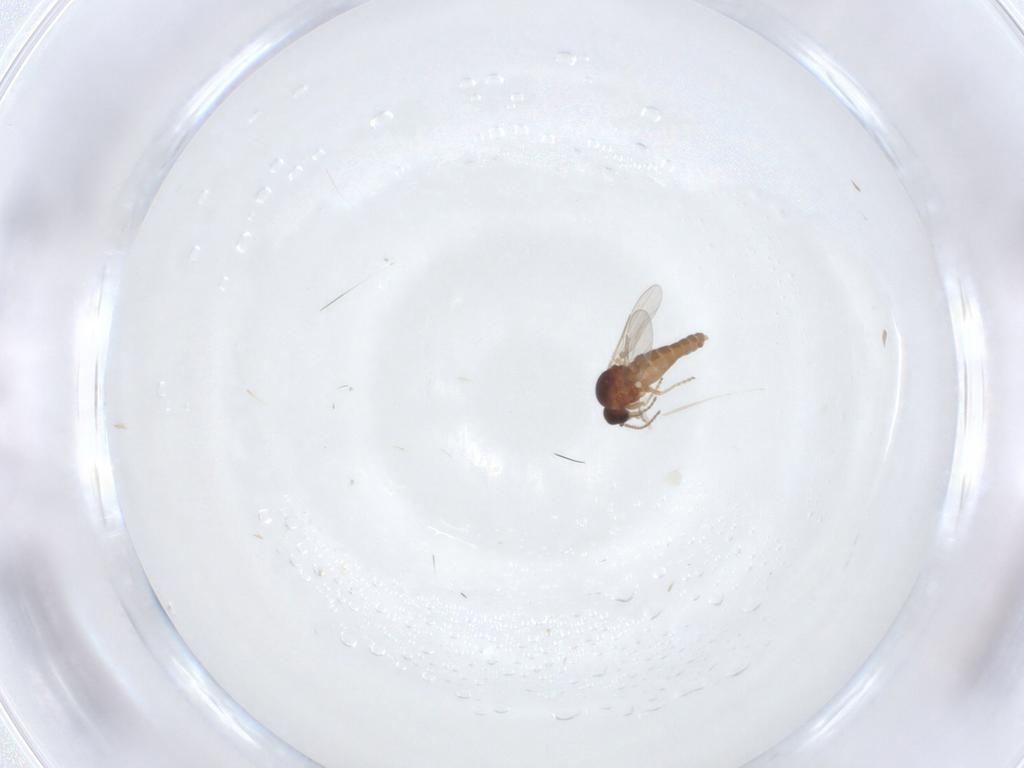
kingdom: Animalia
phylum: Arthropoda
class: Insecta
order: Diptera
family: Ceratopogonidae
